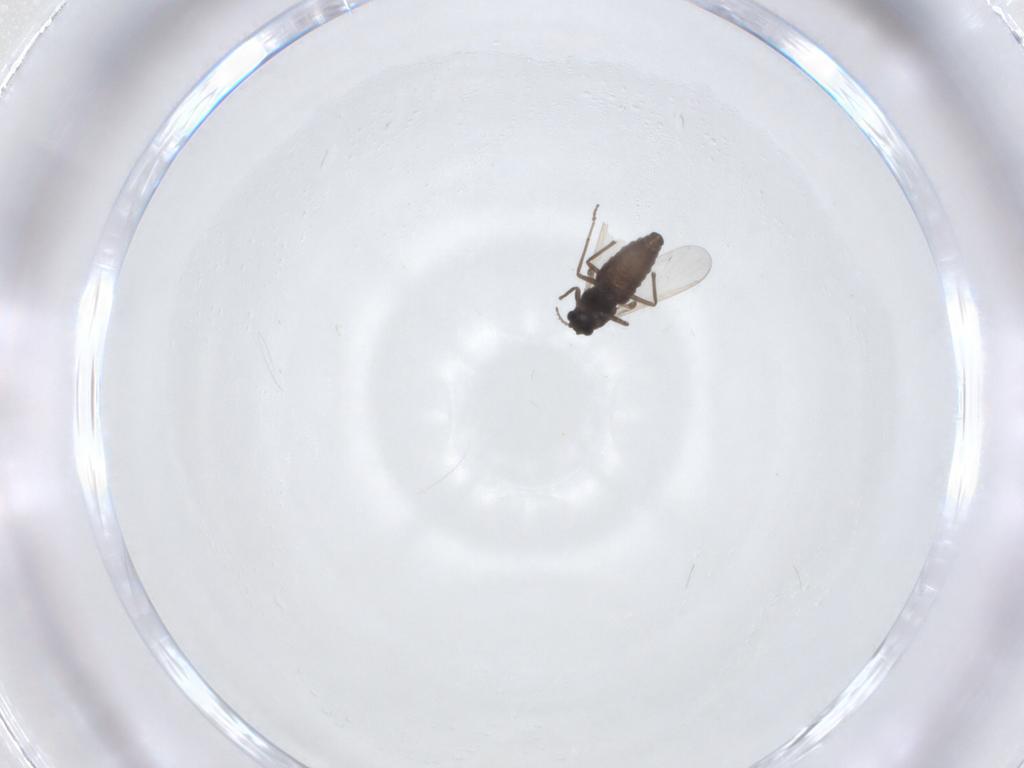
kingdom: Animalia
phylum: Arthropoda
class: Insecta
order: Diptera
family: Chironomidae
